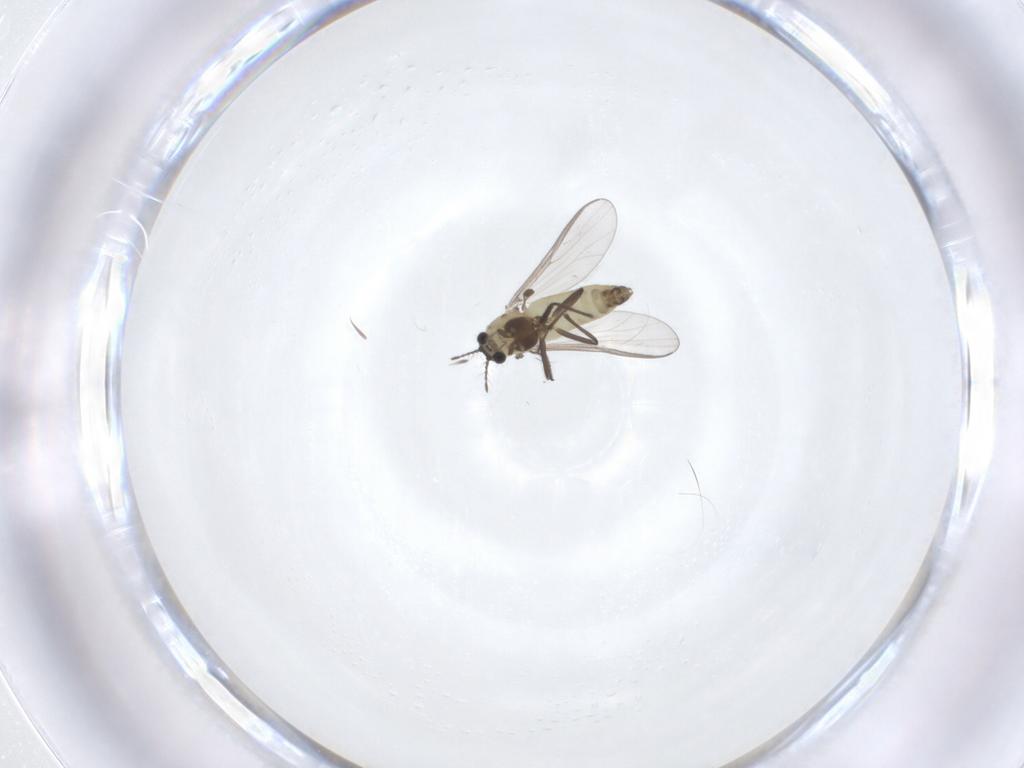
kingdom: Animalia
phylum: Arthropoda
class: Insecta
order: Diptera
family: Chironomidae
